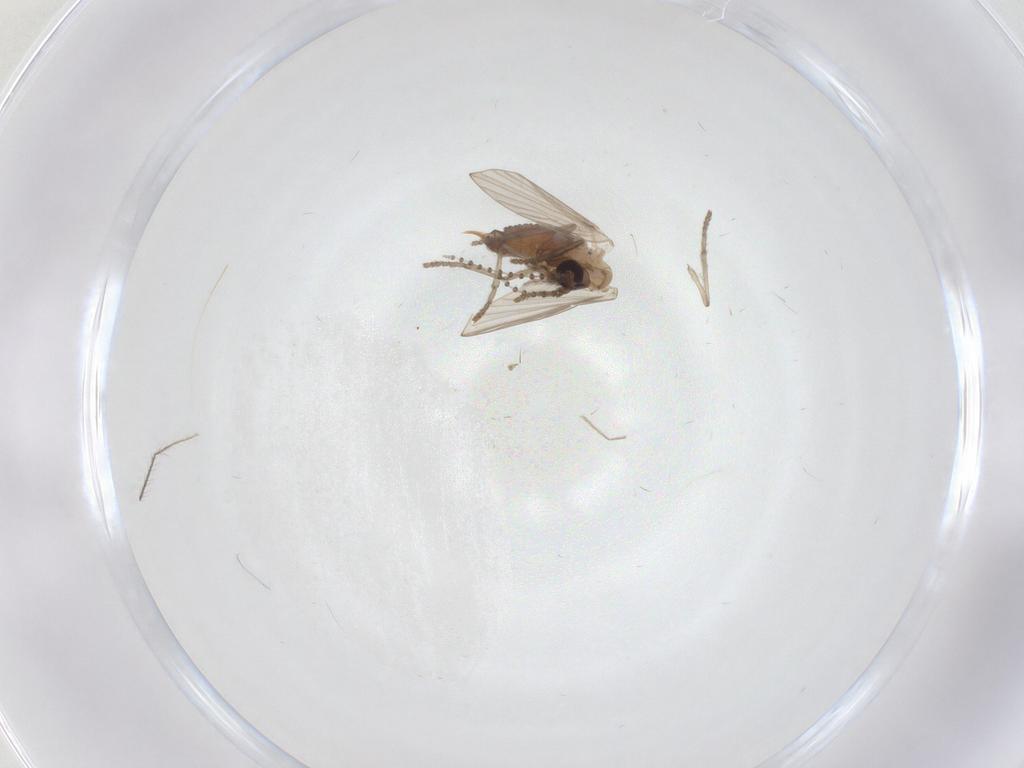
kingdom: Animalia
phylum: Arthropoda
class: Insecta
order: Diptera
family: Psychodidae
